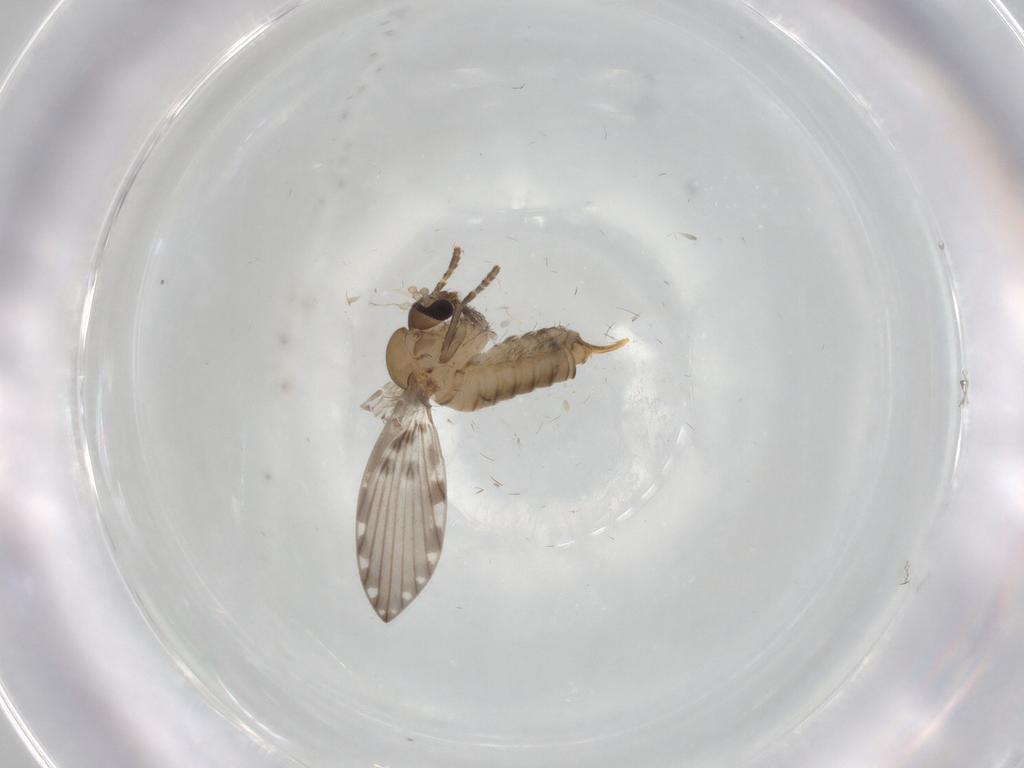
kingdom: Animalia
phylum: Arthropoda
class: Insecta
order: Diptera
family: Psychodidae
